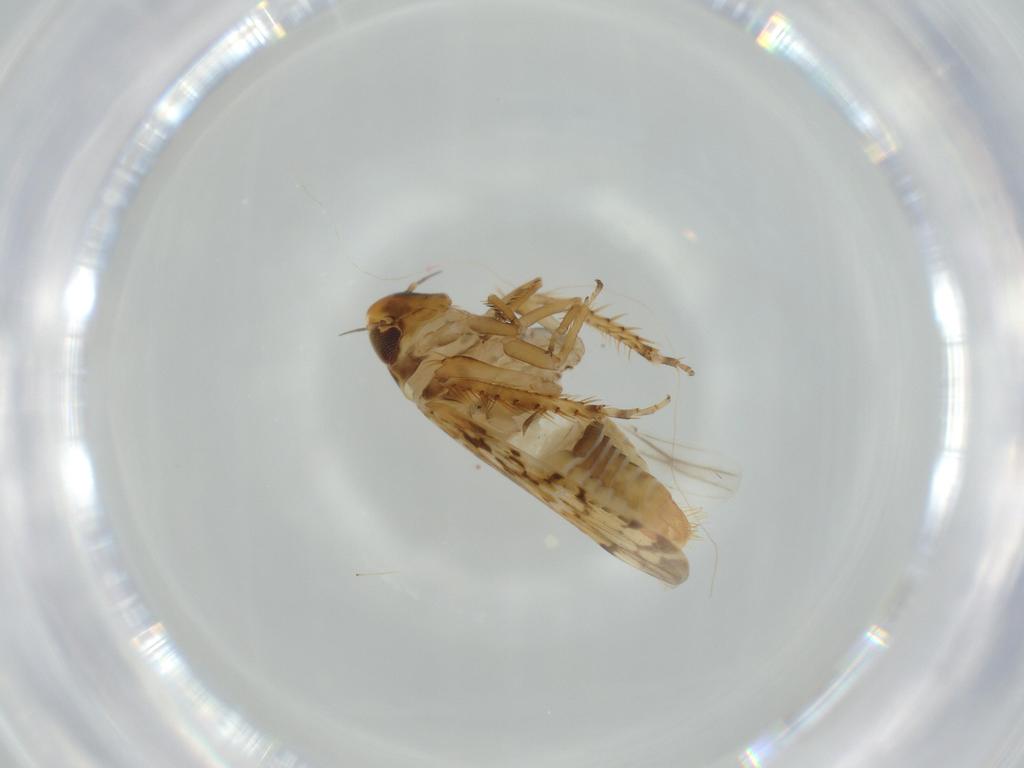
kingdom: Animalia
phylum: Arthropoda
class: Insecta
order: Hemiptera
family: Cicadellidae
